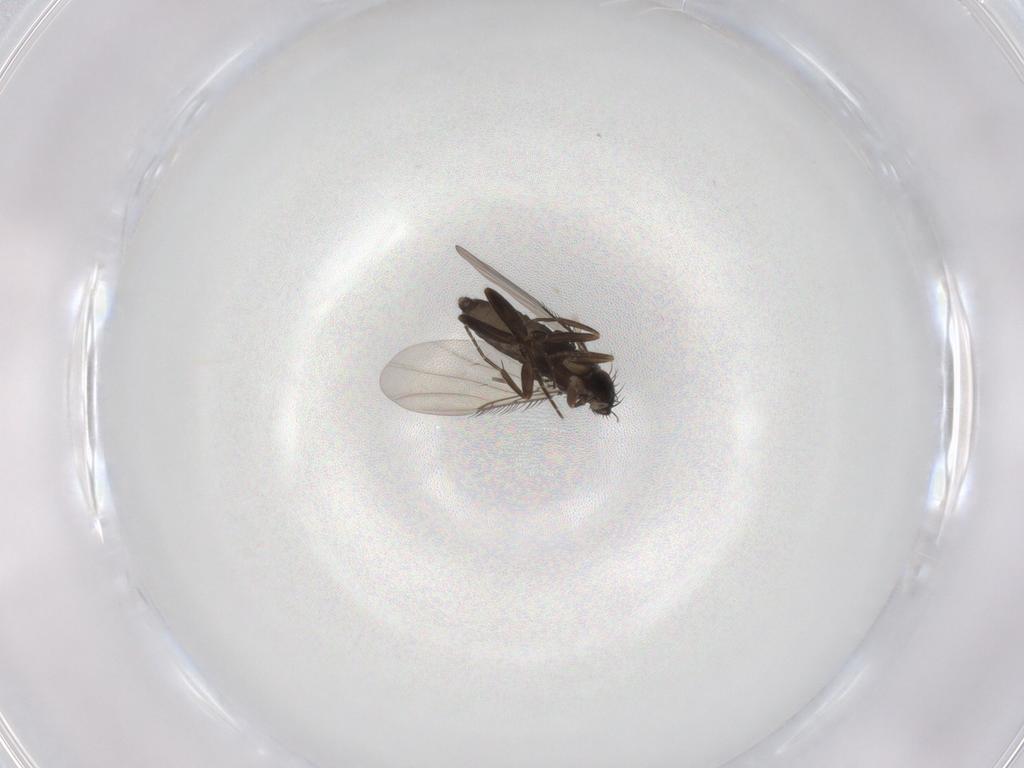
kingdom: Animalia
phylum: Arthropoda
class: Insecta
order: Diptera
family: Phoridae
